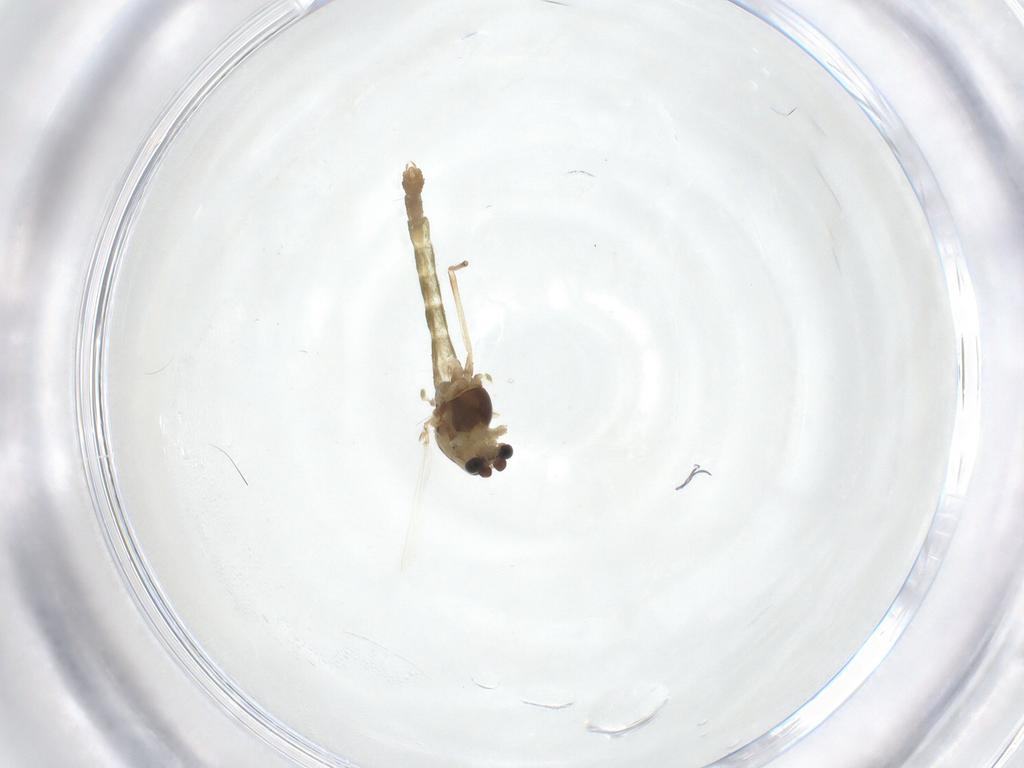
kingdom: Animalia
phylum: Arthropoda
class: Insecta
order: Diptera
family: Chironomidae
